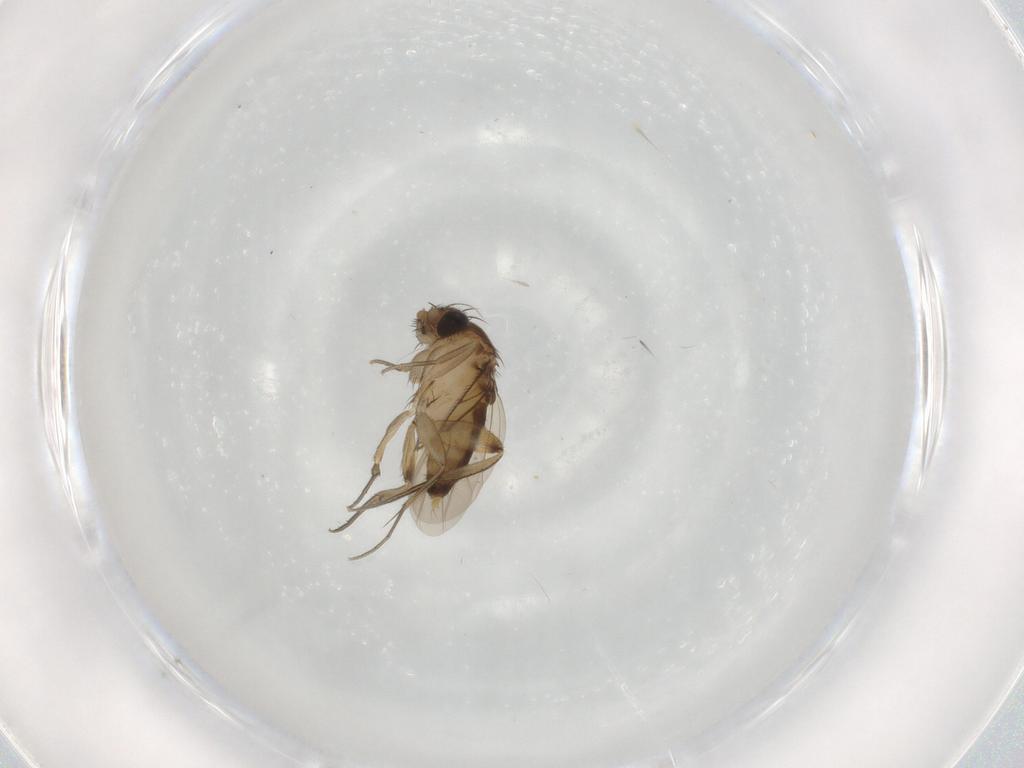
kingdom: Animalia
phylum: Arthropoda
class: Insecta
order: Diptera
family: Phoridae
